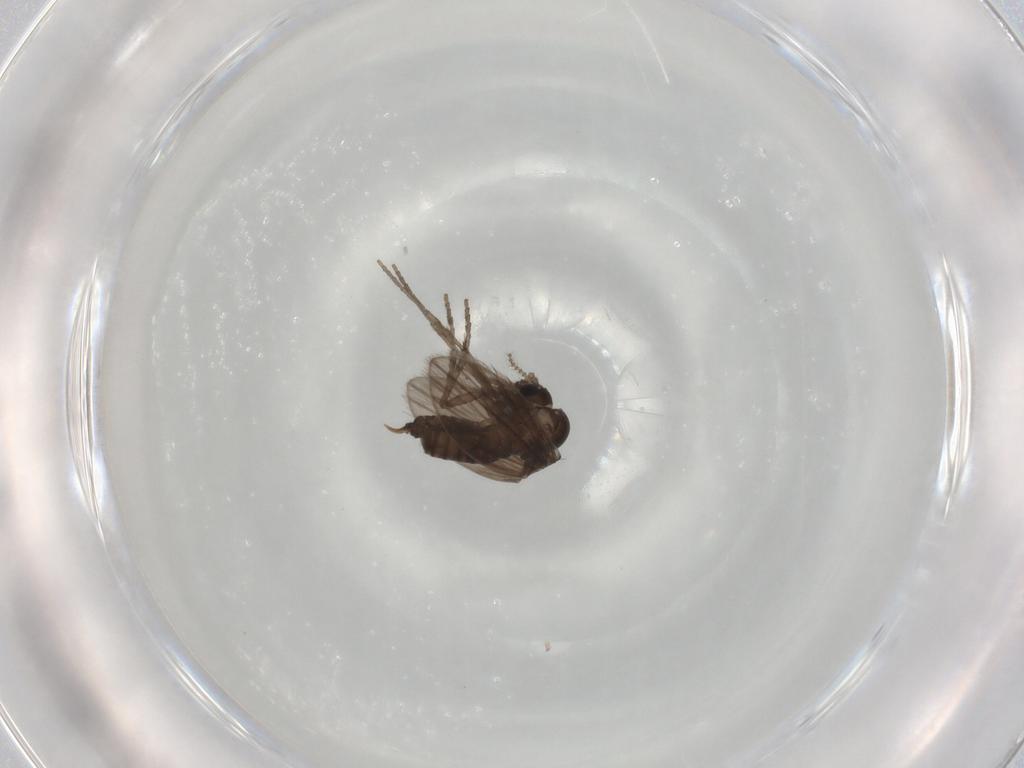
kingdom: Animalia
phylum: Arthropoda
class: Insecta
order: Diptera
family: Psychodidae
